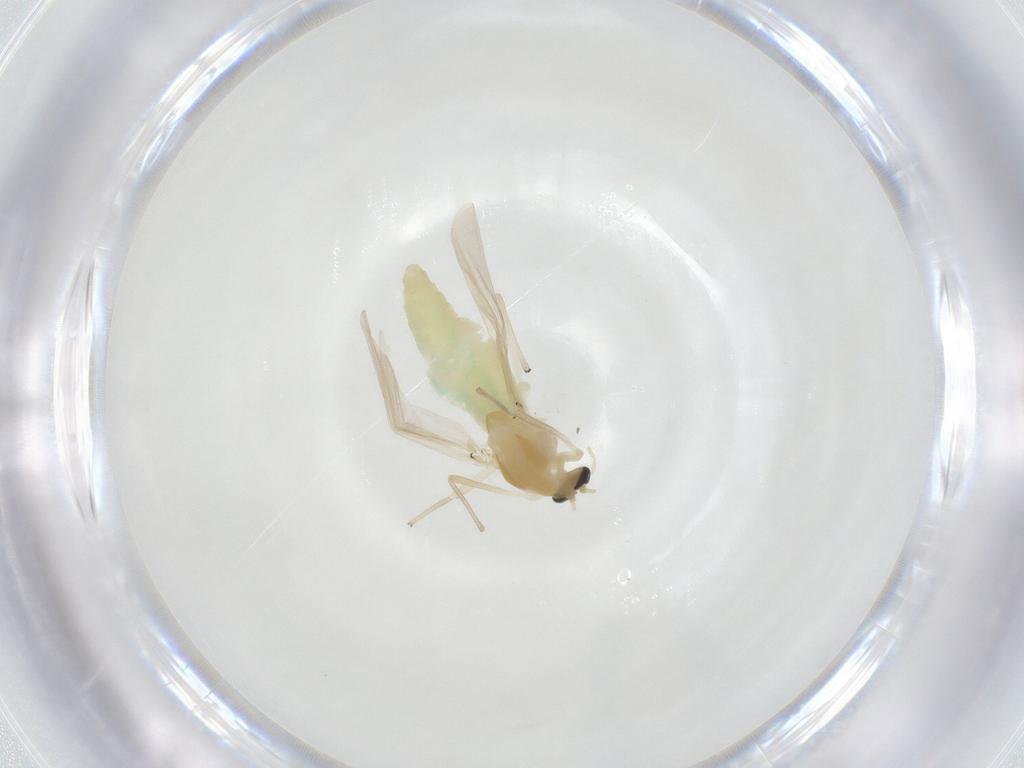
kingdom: Animalia
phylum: Arthropoda
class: Insecta
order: Diptera
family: Chironomidae
